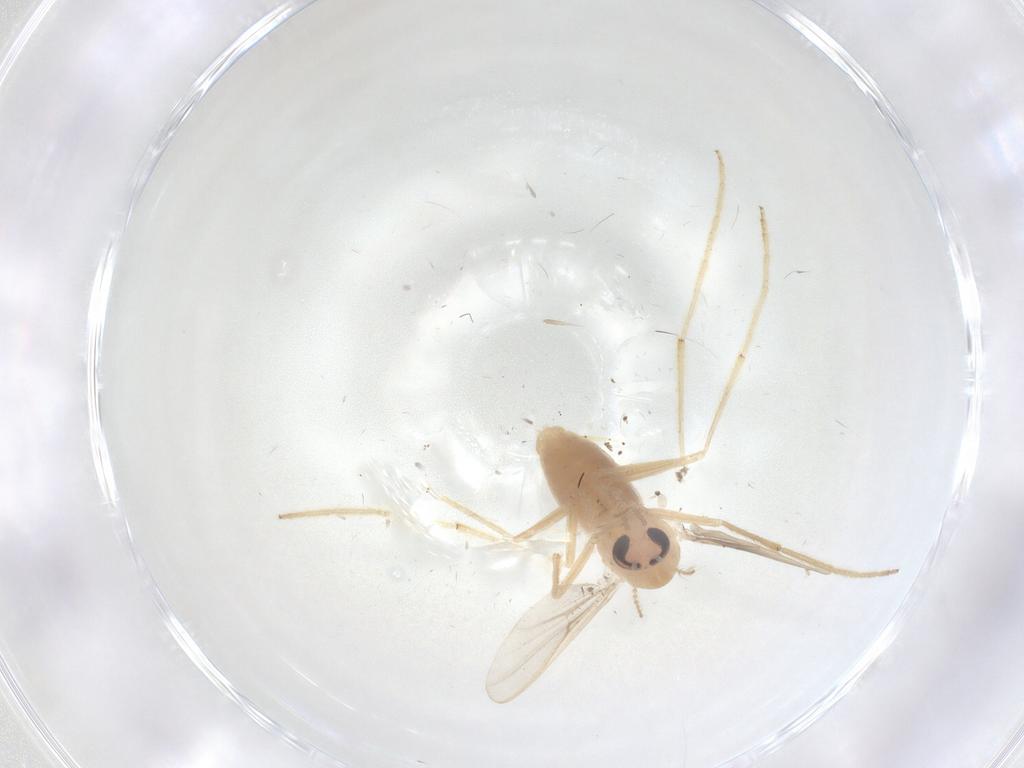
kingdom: Animalia
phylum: Arthropoda
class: Insecta
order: Diptera
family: Chironomidae
